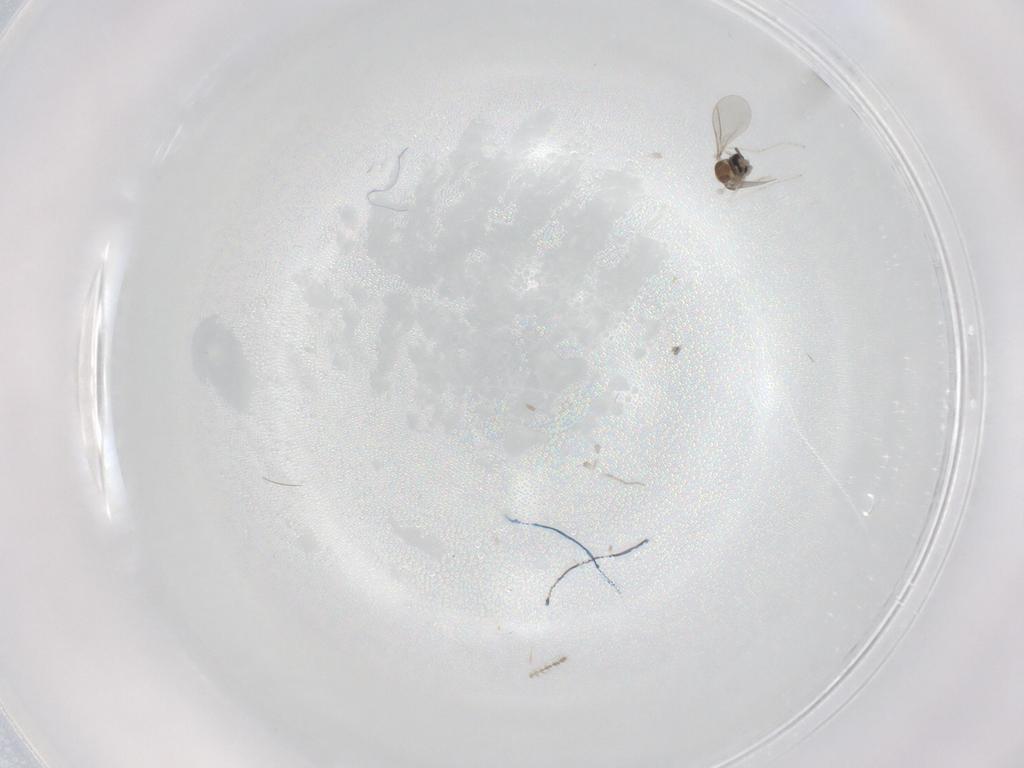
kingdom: Animalia
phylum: Arthropoda
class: Insecta
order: Diptera
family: Cecidomyiidae
